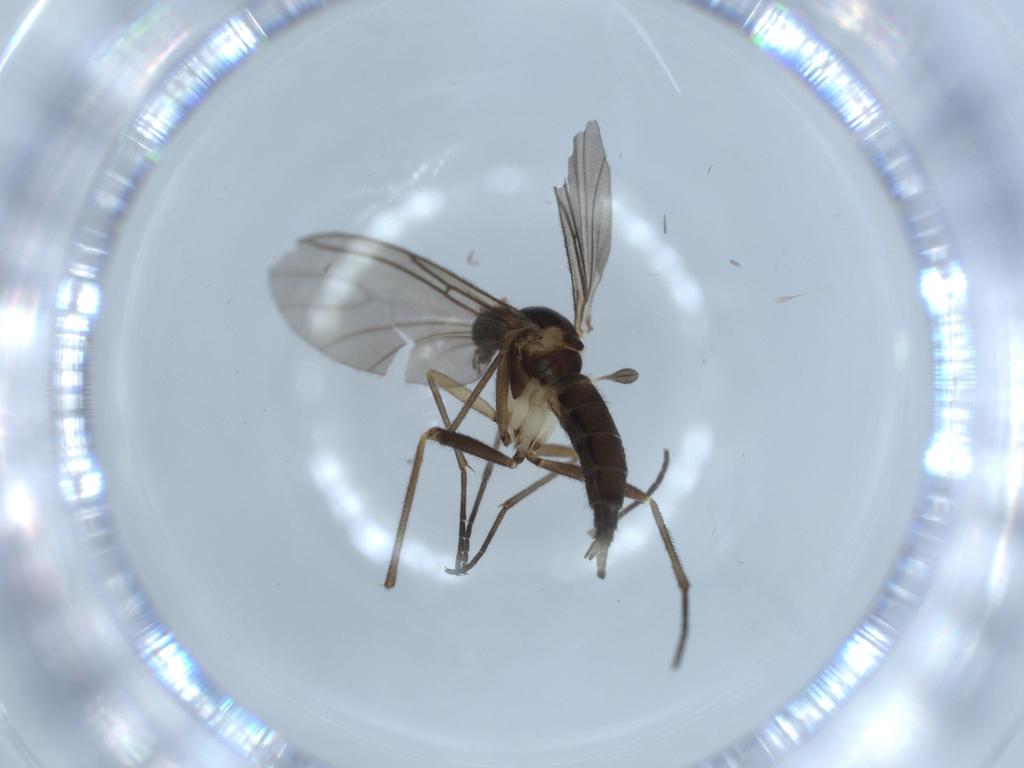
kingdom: Animalia
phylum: Arthropoda
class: Insecta
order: Diptera
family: Sciaridae
